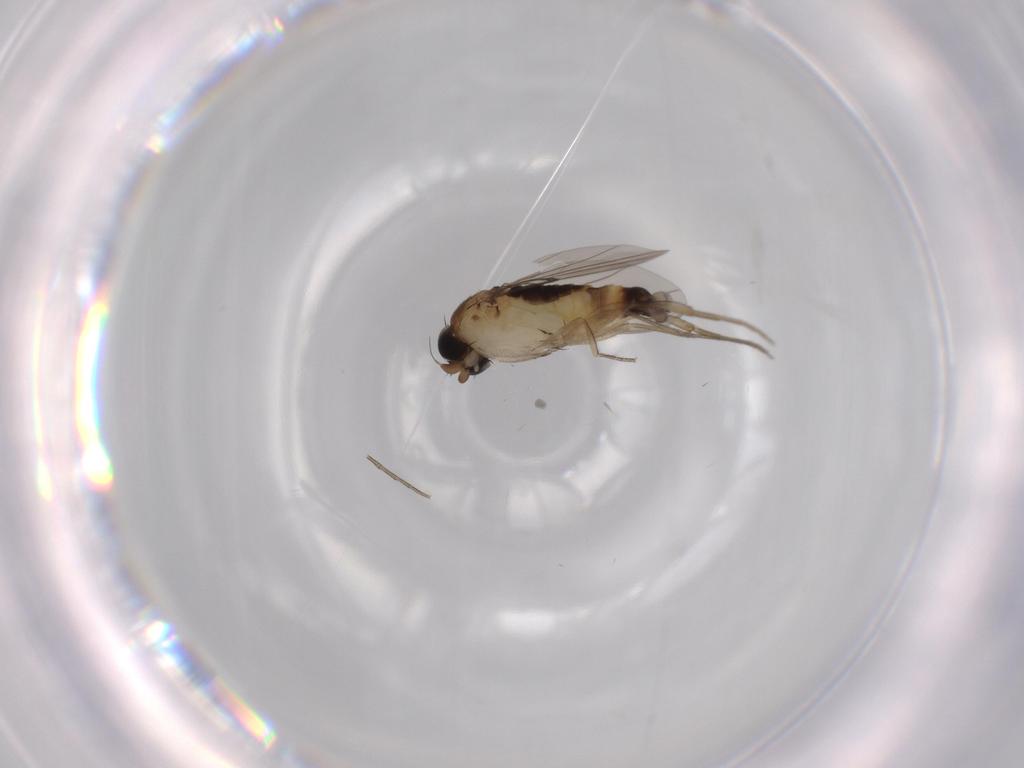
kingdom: Animalia
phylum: Arthropoda
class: Insecta
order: Diptera
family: Phoridae
